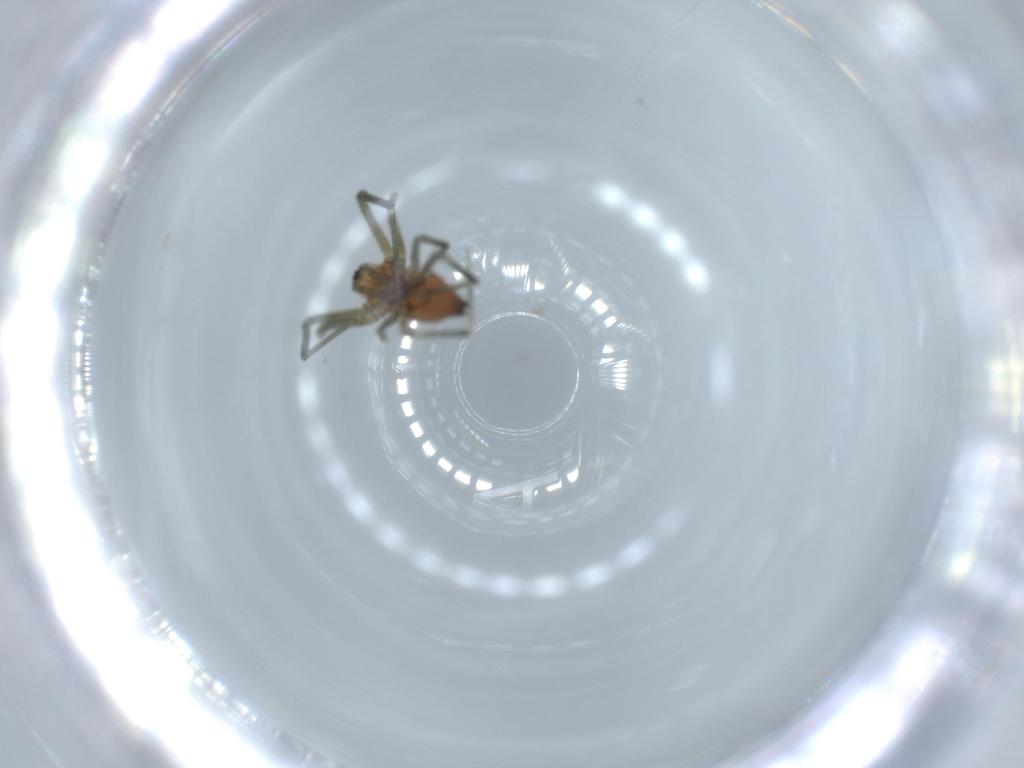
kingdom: Animalia
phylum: Arthropoda
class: Arachnida
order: Araneae
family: Linyphiidae
